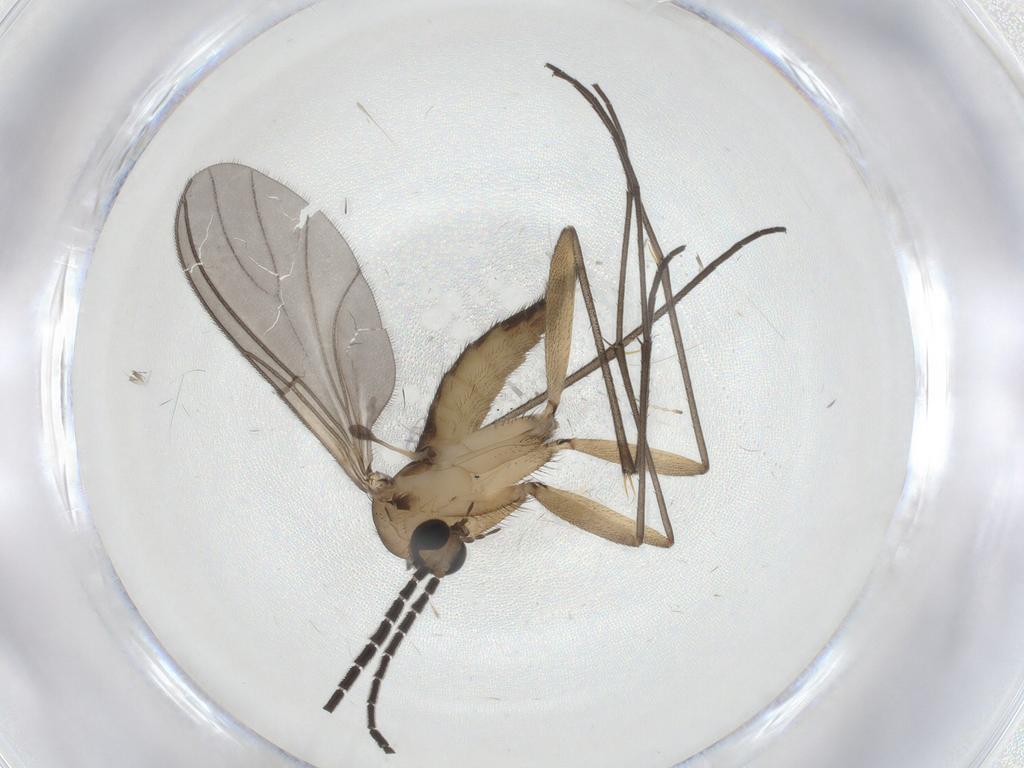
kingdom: Animalia
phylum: Arthropoda
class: Insecta
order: Diptera
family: Sciaridae
